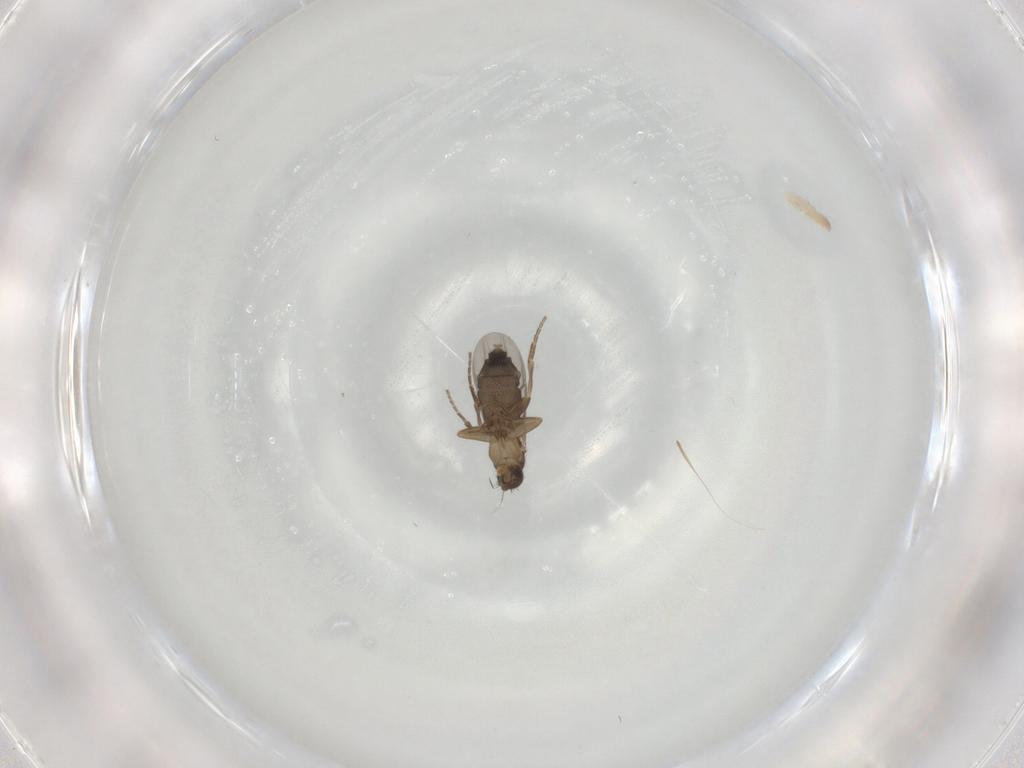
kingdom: Animalia
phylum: Arthropoda
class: Insecta
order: Diptera
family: Phoridae
